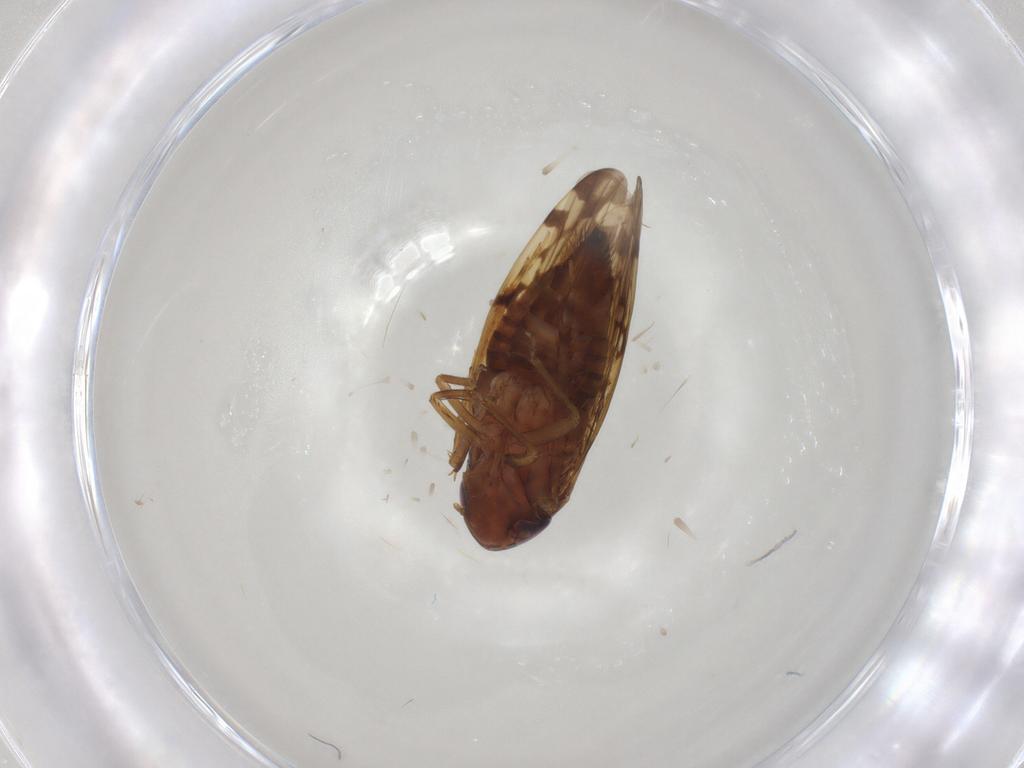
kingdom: Animalia
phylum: Arthropoda
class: Insecta
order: Hemiptera
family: Cicadellidae
